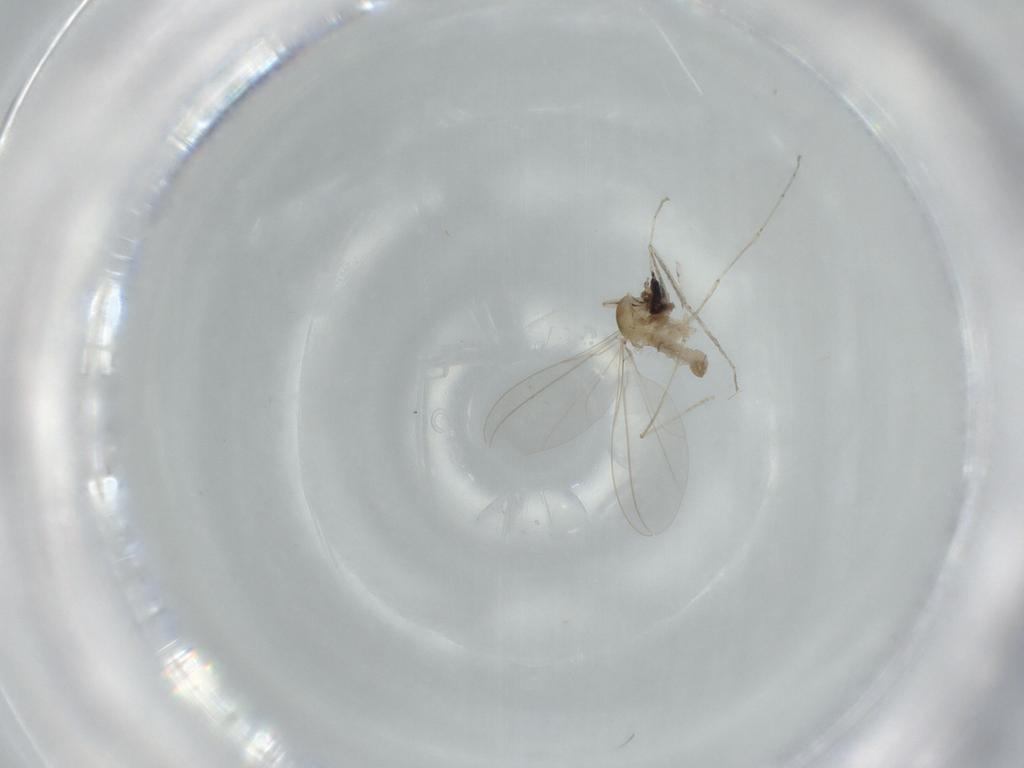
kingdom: Animalia
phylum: Arthropoda
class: Insecta
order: Diptera
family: Cecidomyiidae
